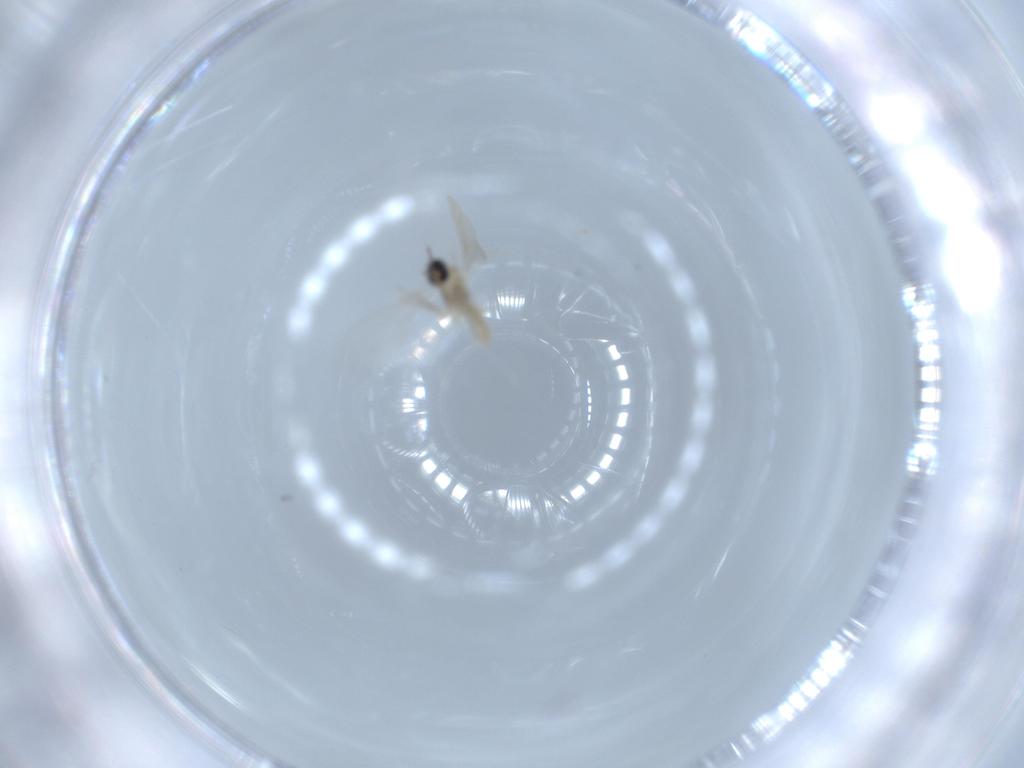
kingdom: Animalia
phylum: Arthropoda
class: Insecta
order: Diptera
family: Cecidomyiidae
